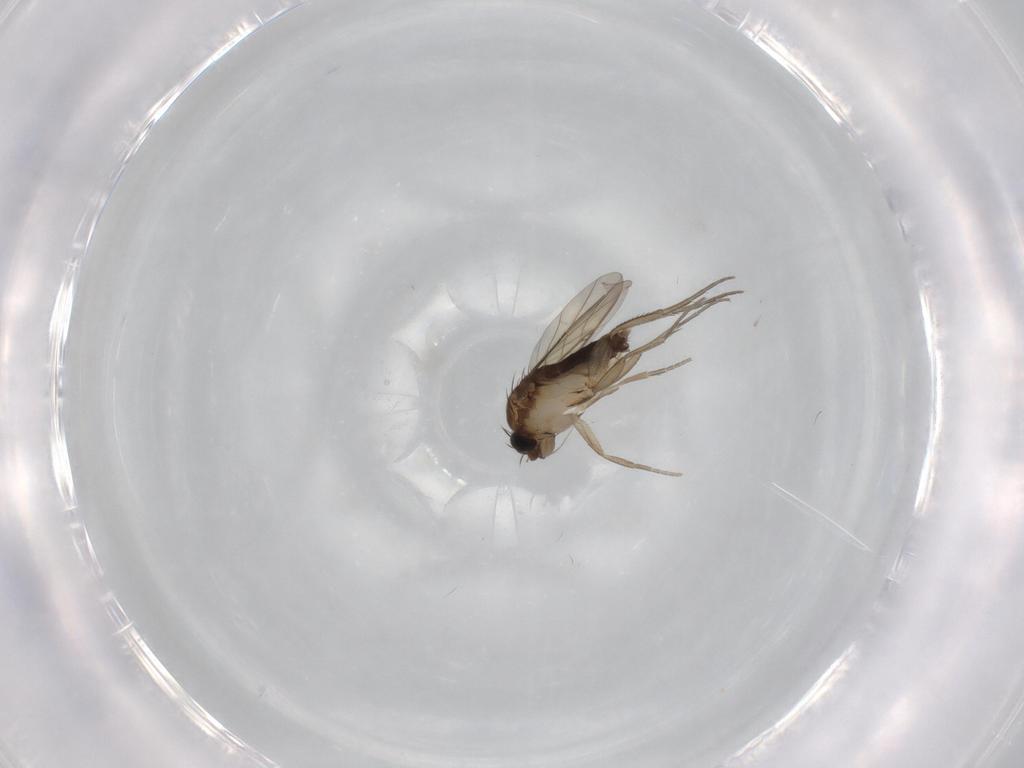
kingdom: Animalia
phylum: Arthropoda
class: Insecta
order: Diptera
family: Phoridae
